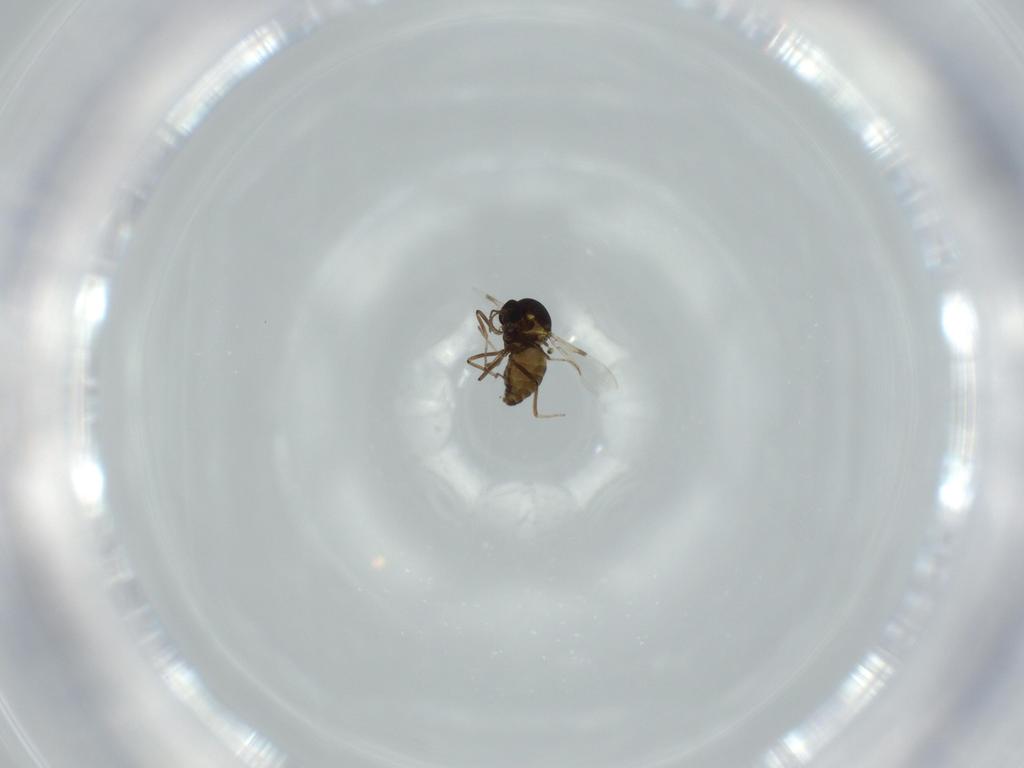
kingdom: Animalia
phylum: Arthropoda
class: Insecta
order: Diptera
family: Ceratopogonidae
